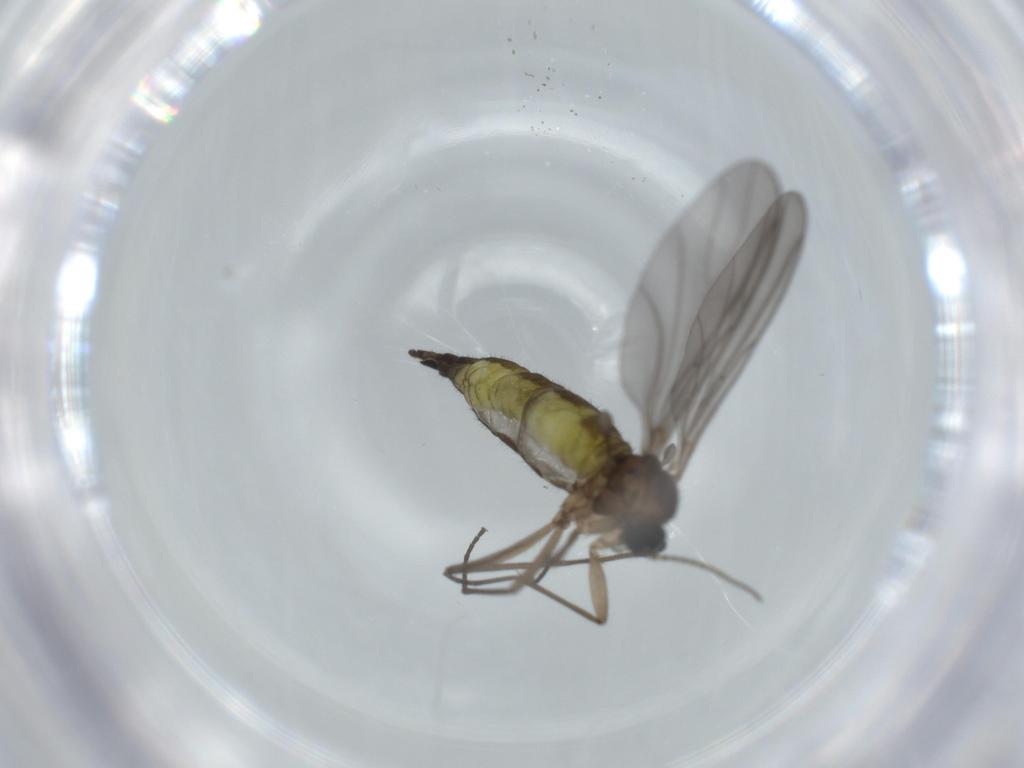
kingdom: Animalia
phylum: Arthropoda
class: Insecta
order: Diptera
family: Sciaridae
